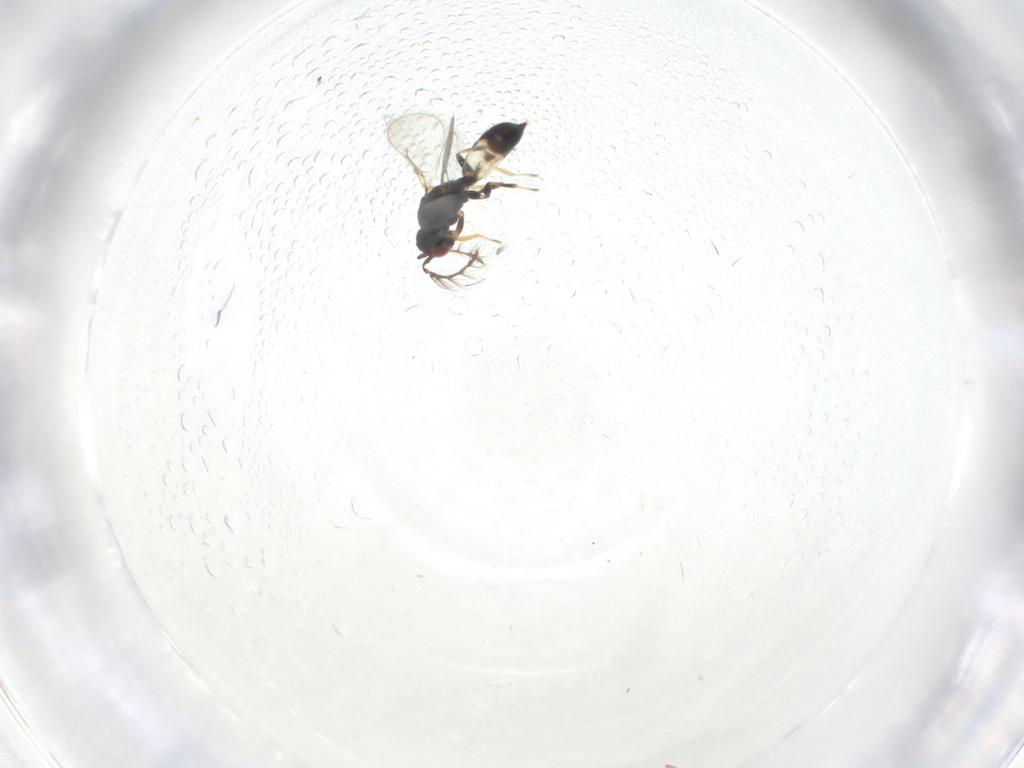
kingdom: Animalia
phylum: Arthropoda
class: Insecta
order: Hymenoptera
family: Eulophidae
